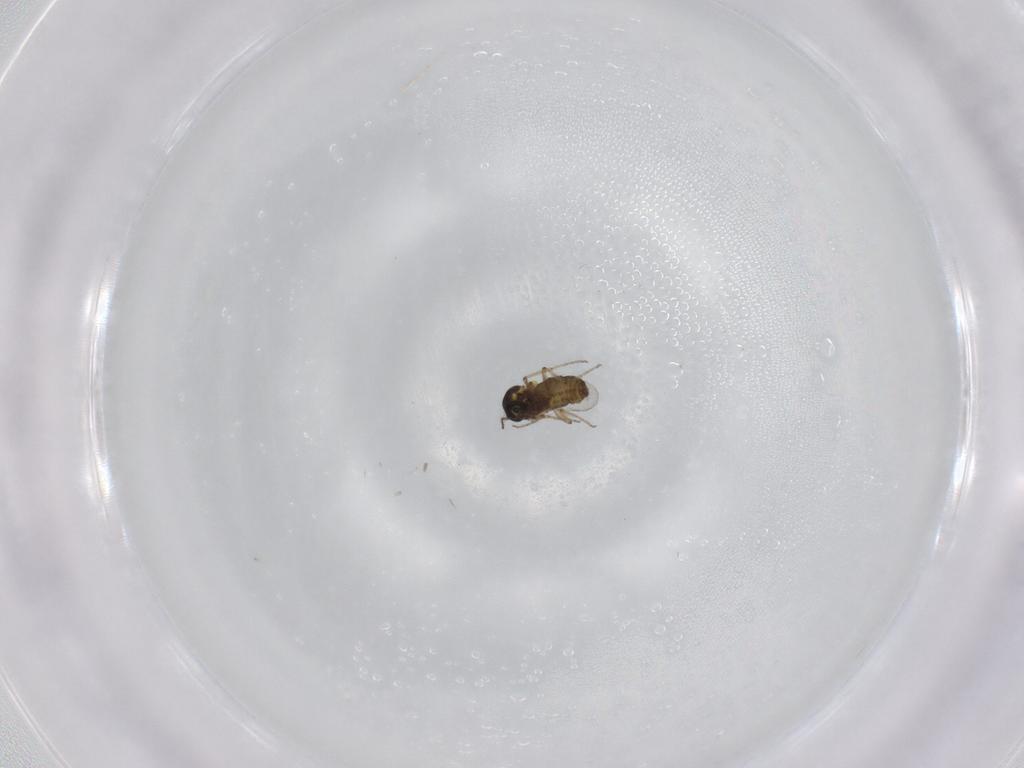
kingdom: Animalia
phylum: Arthropoda
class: Insecta
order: Diptera
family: Ceratopogonidae
